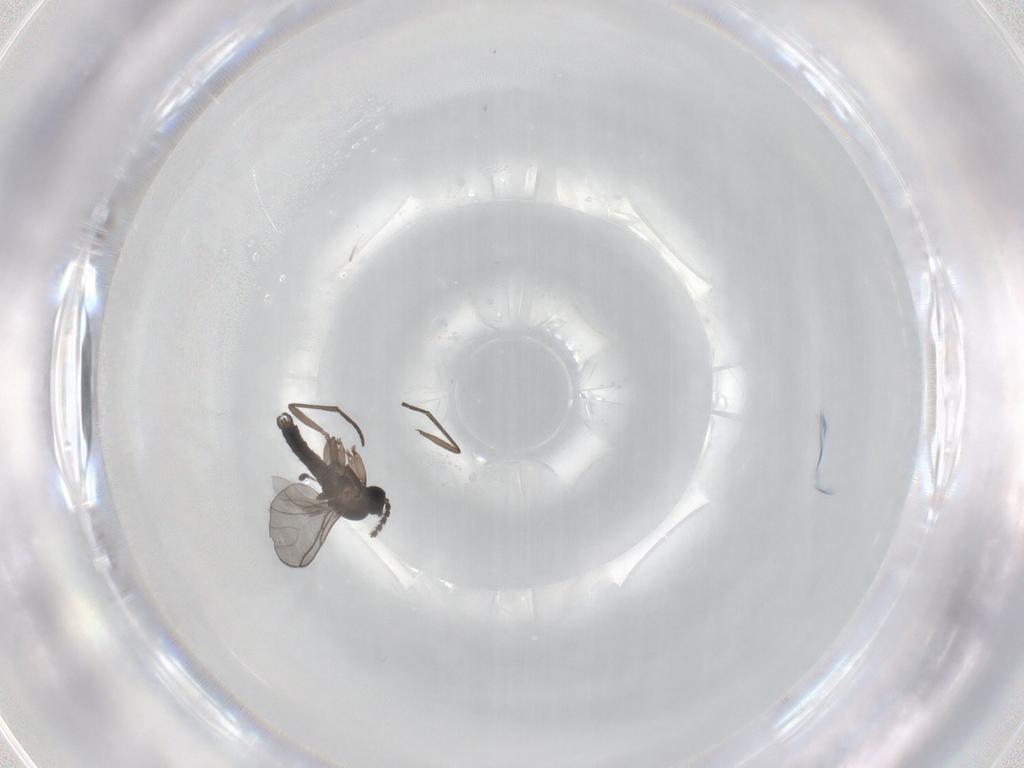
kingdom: Animalia
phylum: Arthropoda
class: Insecta
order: Diptera
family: Sciaridae
